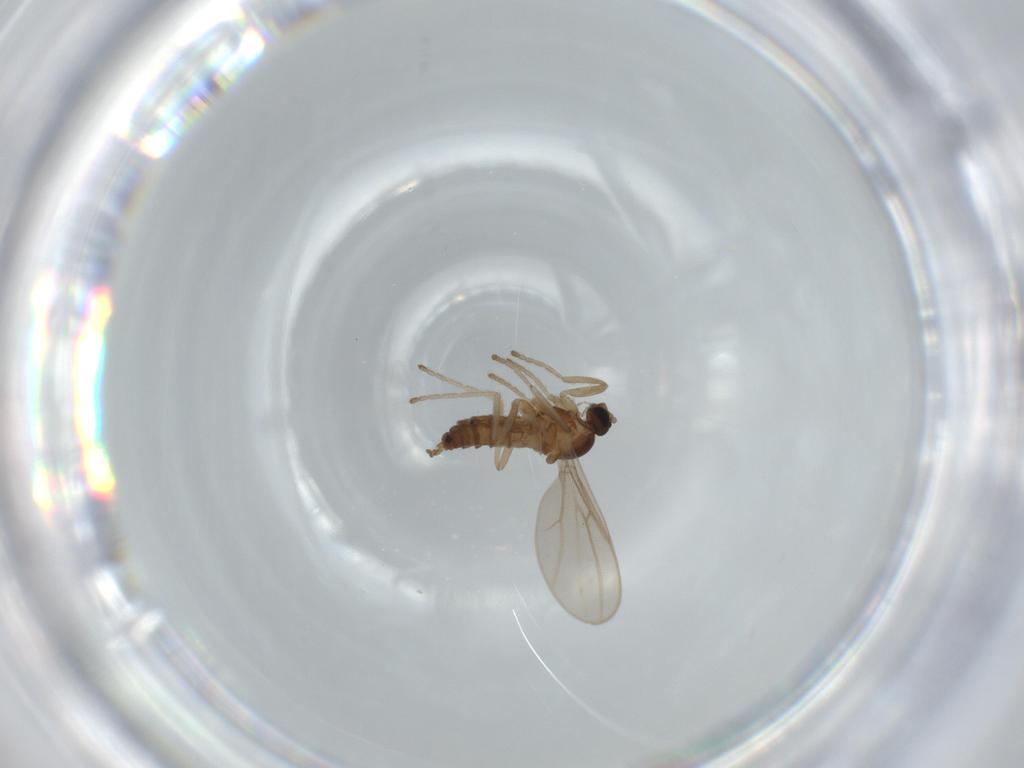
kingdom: Animalia
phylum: Arthropoda
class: Insecta
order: Diptera
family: Cecidomyiidae
